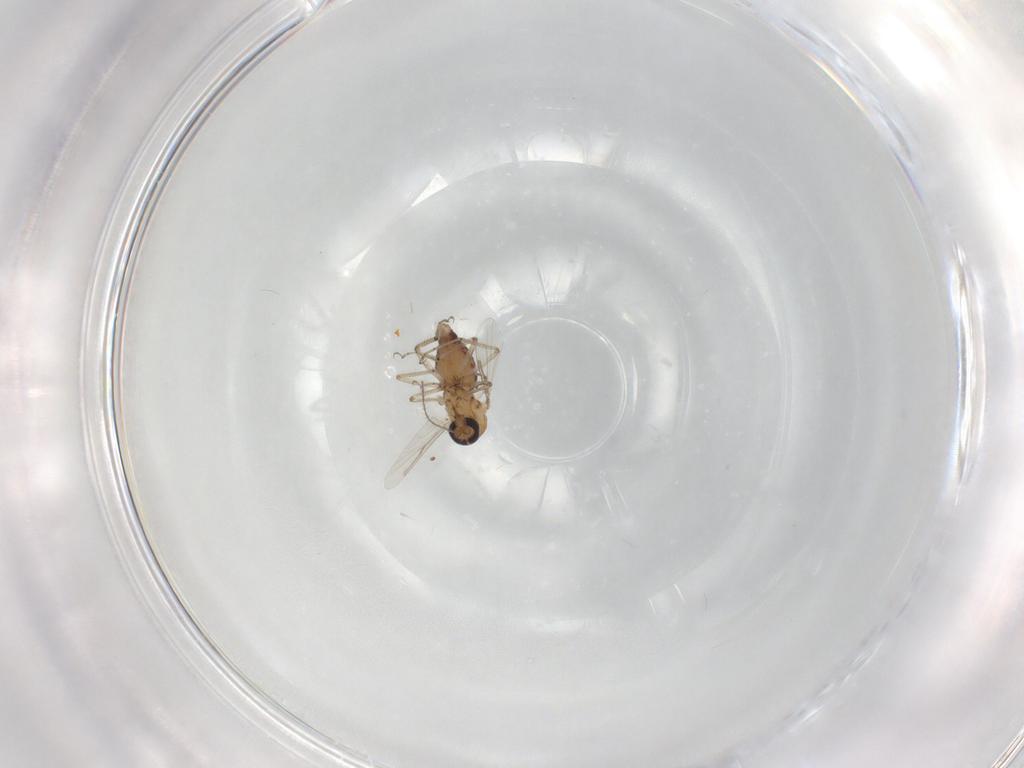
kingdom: Animalia
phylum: Arthropoda
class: Insecta
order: Diptera
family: Ceratopogonidae
